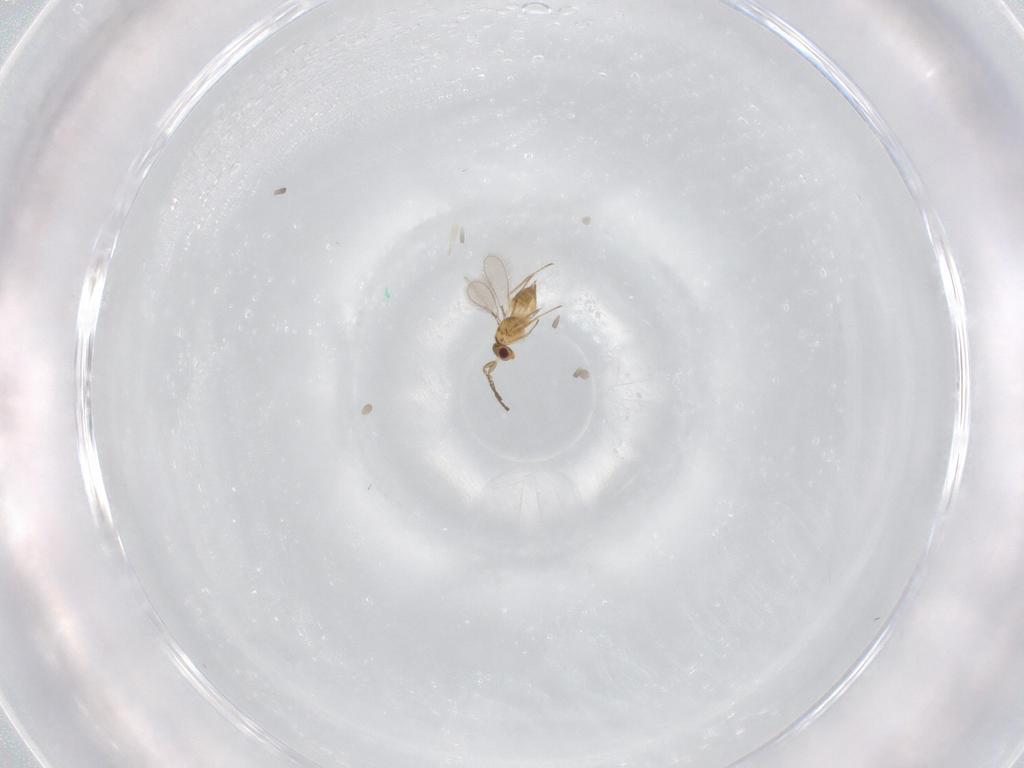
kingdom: Animalia
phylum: Arthropoda
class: Insecta
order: Hymenoptera
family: Mymaridae
